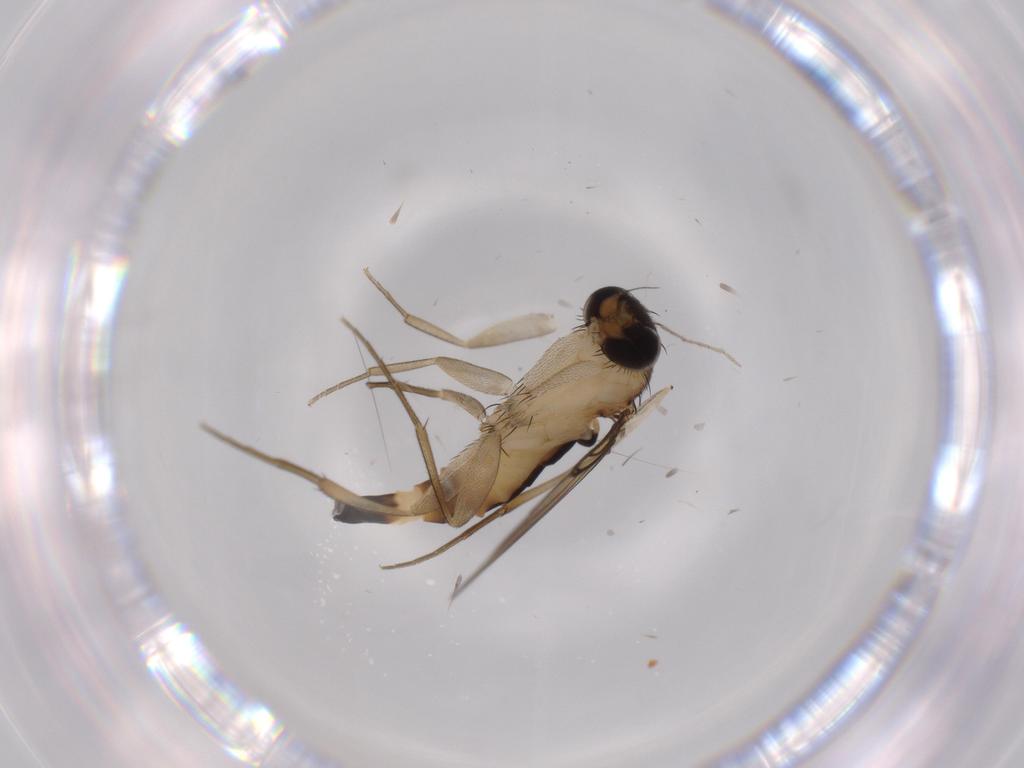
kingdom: Animalia
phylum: Arthropoda
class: Insecta
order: Diptera
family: Phoridae
